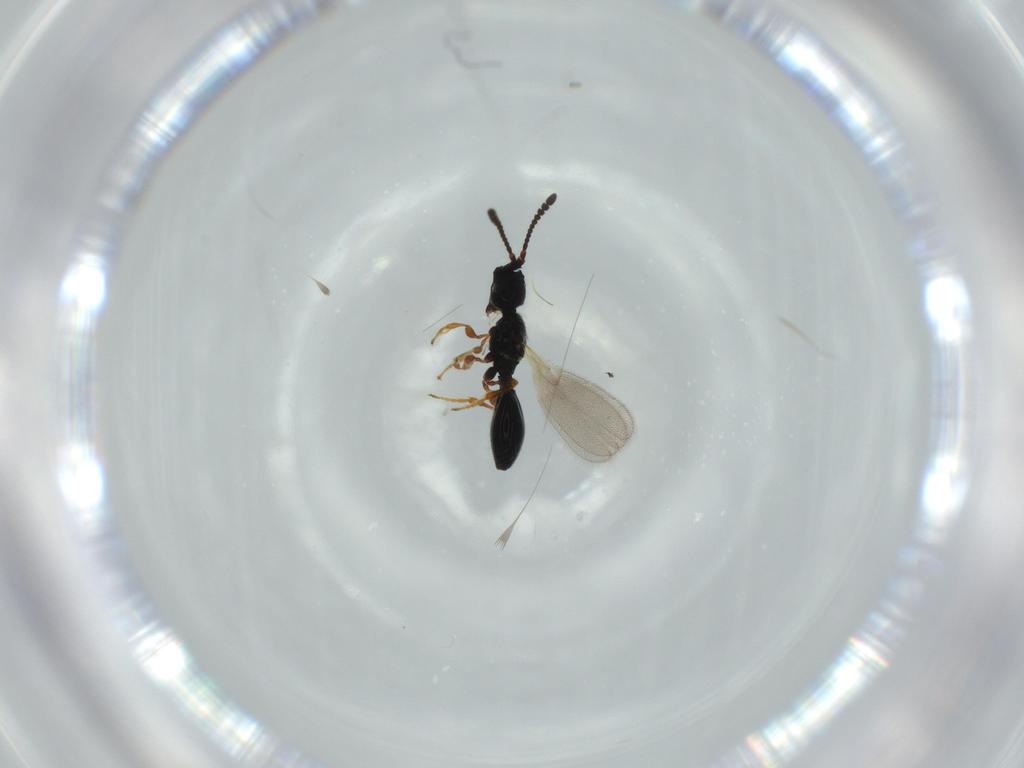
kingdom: Animalia
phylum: Arthropoda
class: Insecta
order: Hymenoptera
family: Diapriidae
